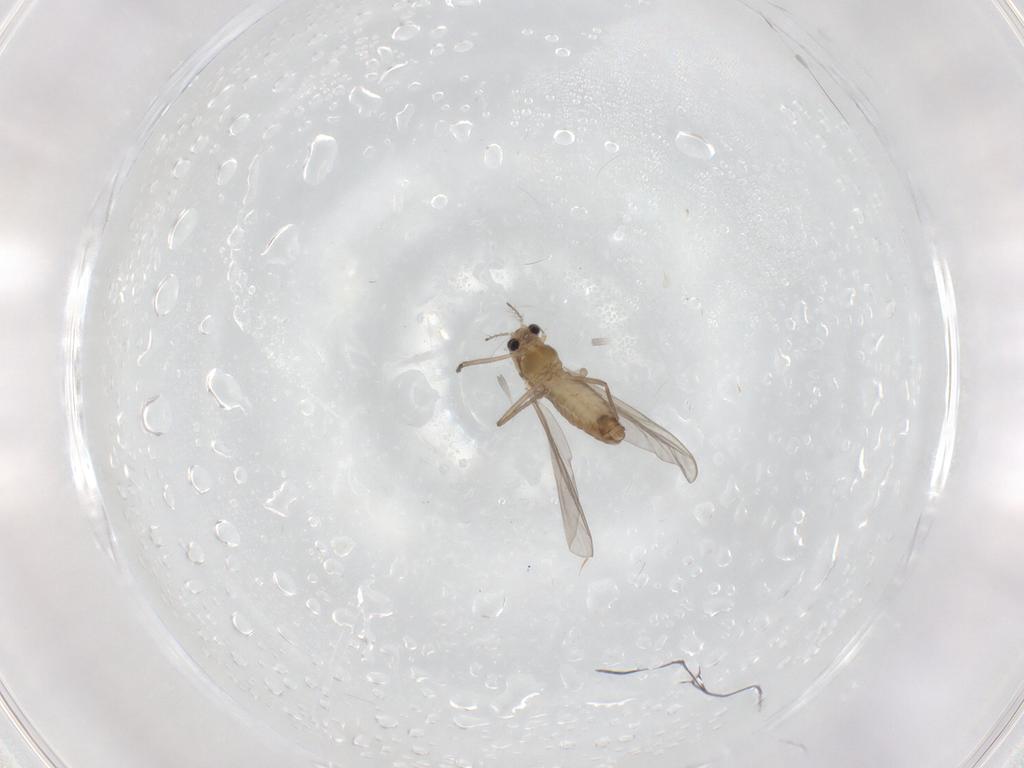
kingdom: Animalia
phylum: Arthropoda
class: Insecta
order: Diptera
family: Chironomidae
